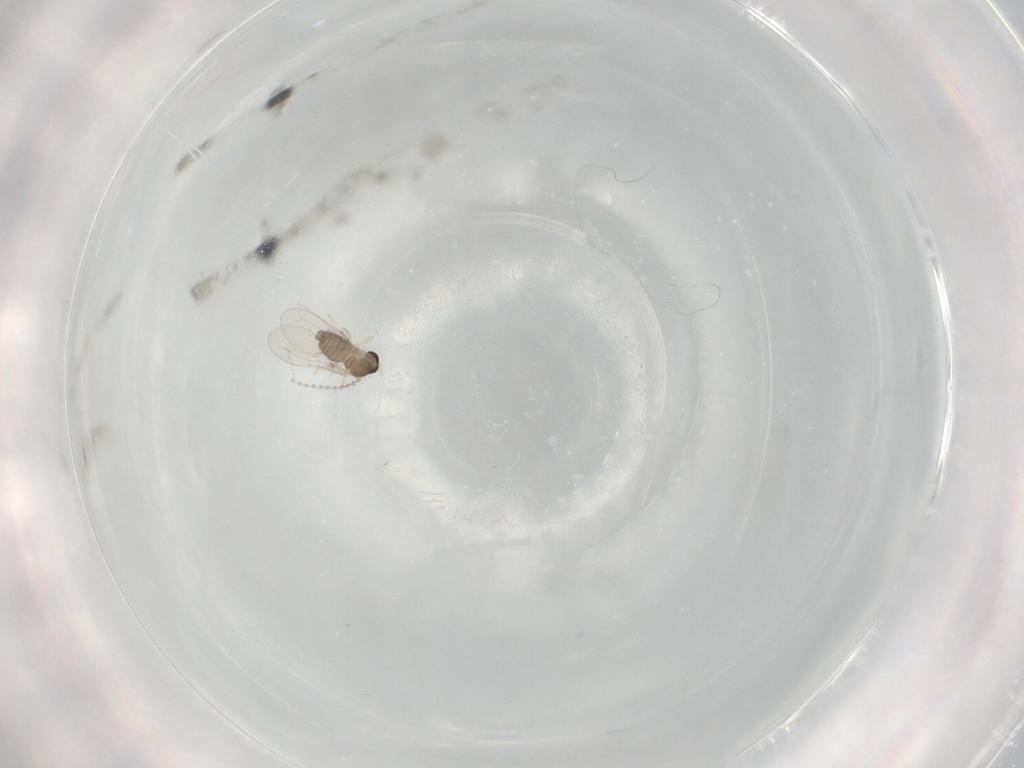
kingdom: Animalia
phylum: Arthropoda
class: Insecta
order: Diptera
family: Cecidomyiidae
